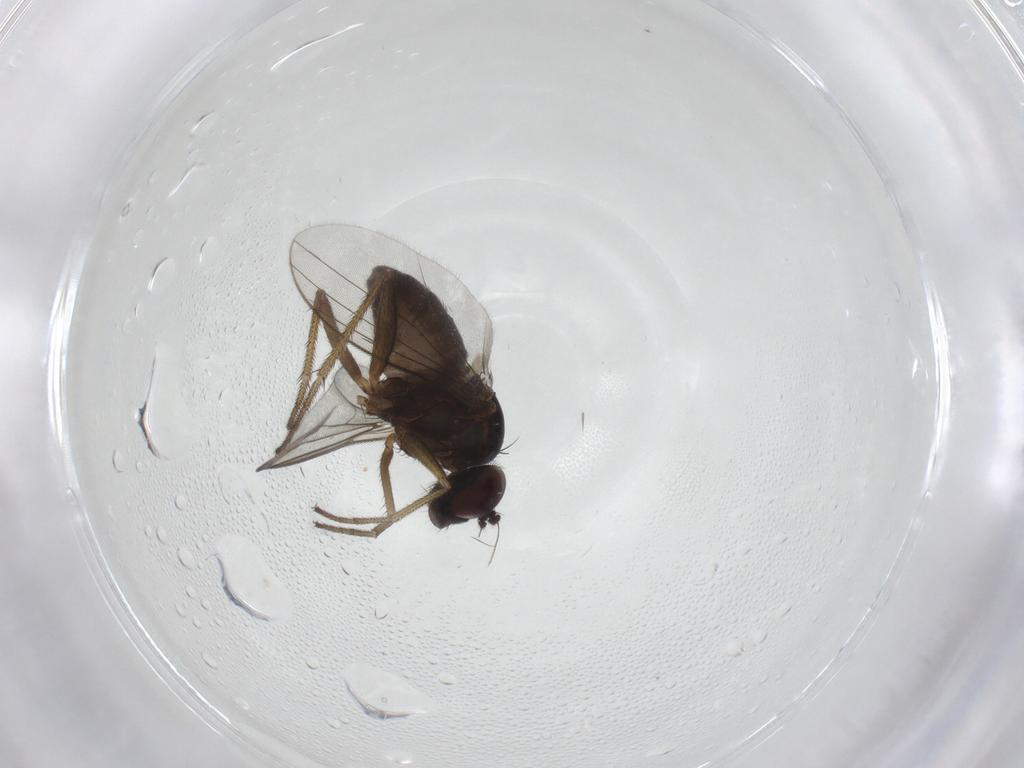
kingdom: Animalia
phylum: Arthropoda
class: Insecta
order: Diptera
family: Cecidomyiidae
